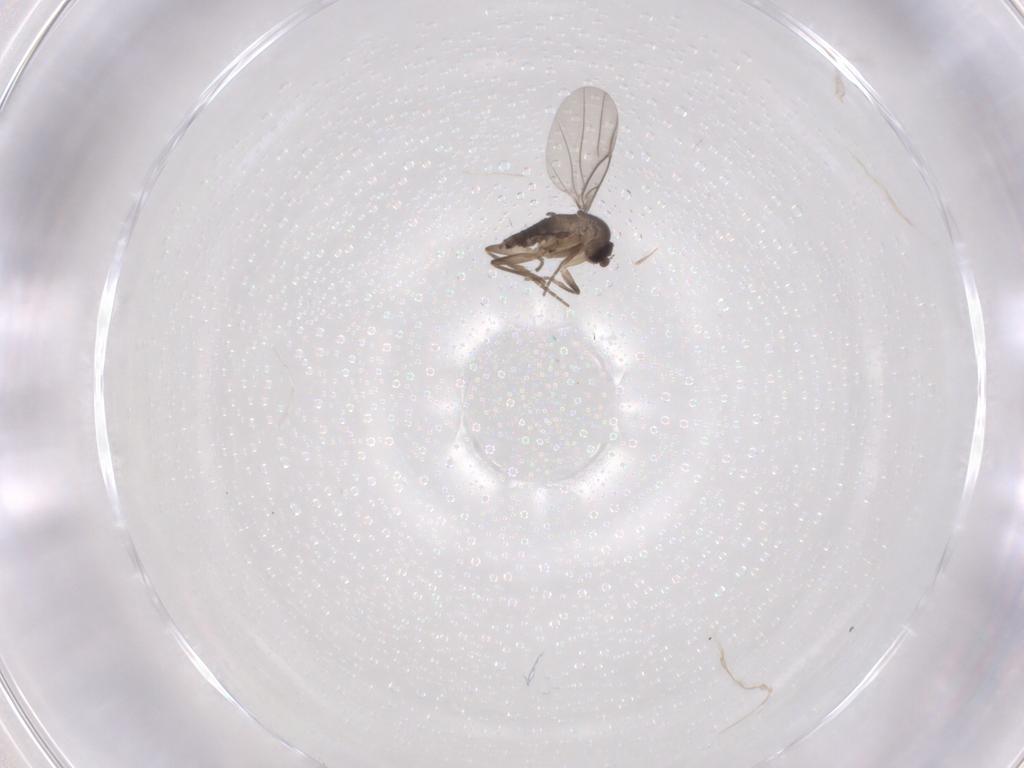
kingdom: Animalia
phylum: Arthropoda
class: Insecta
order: Diptera
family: Phoridae
